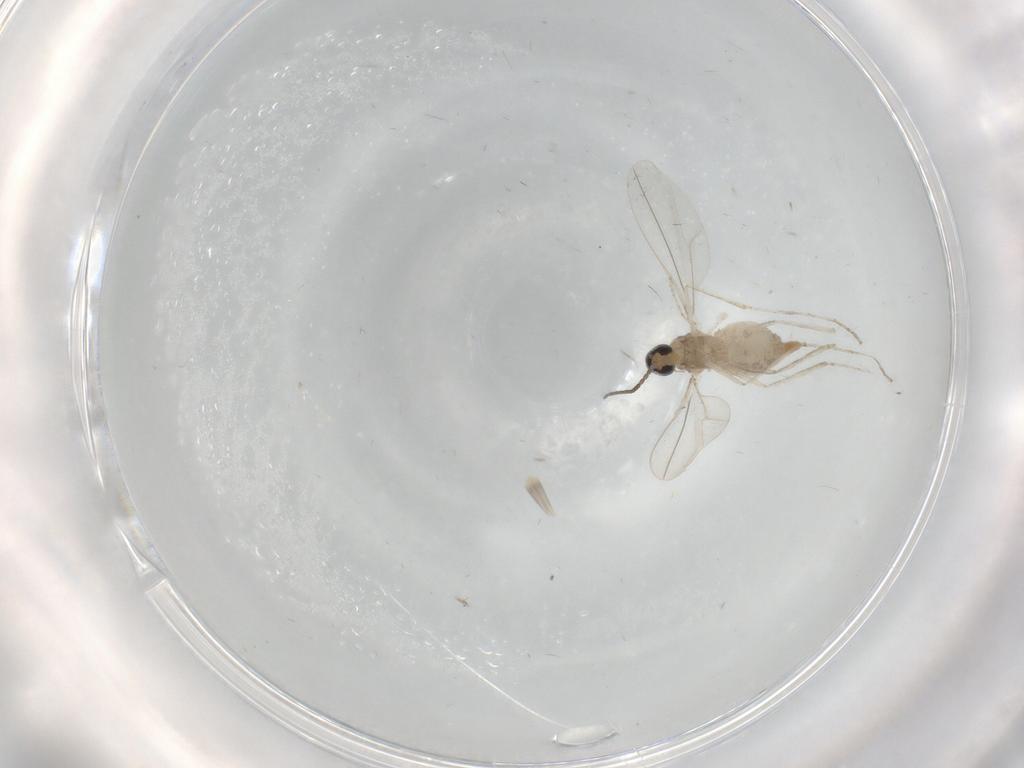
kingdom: Animalia
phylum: Arthropoda
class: Insecta
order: Diptera
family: Cecidomyiidae
